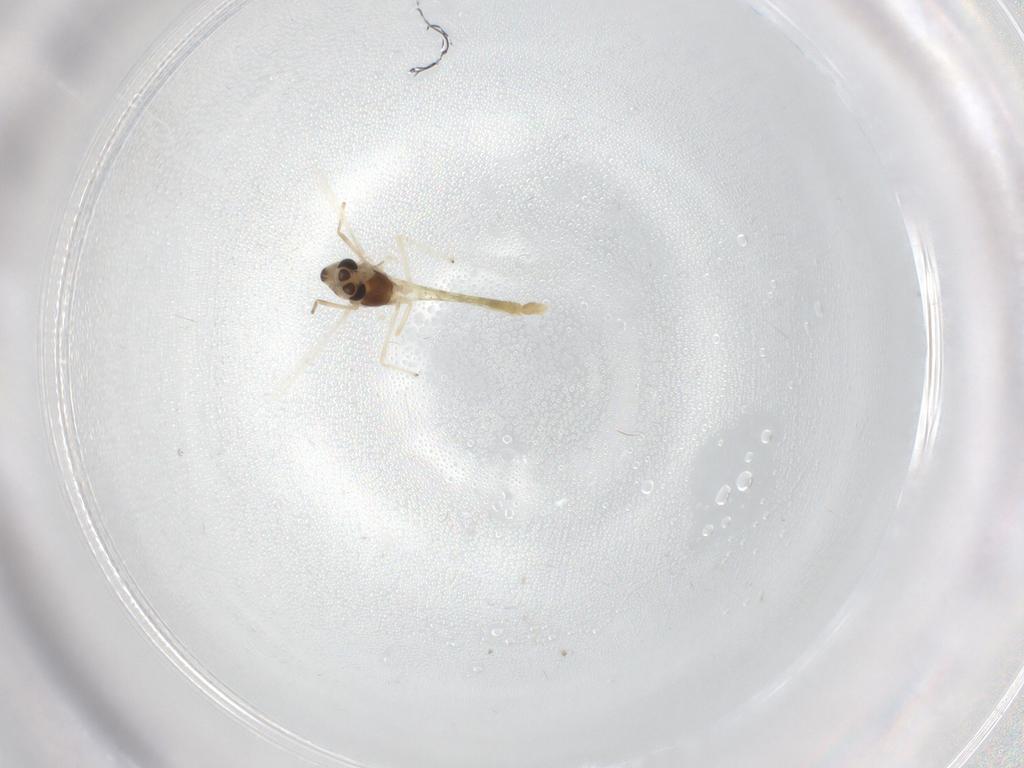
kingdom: Animalia
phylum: Arthropoda
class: Insecta
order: Diptera
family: Chironomidae
